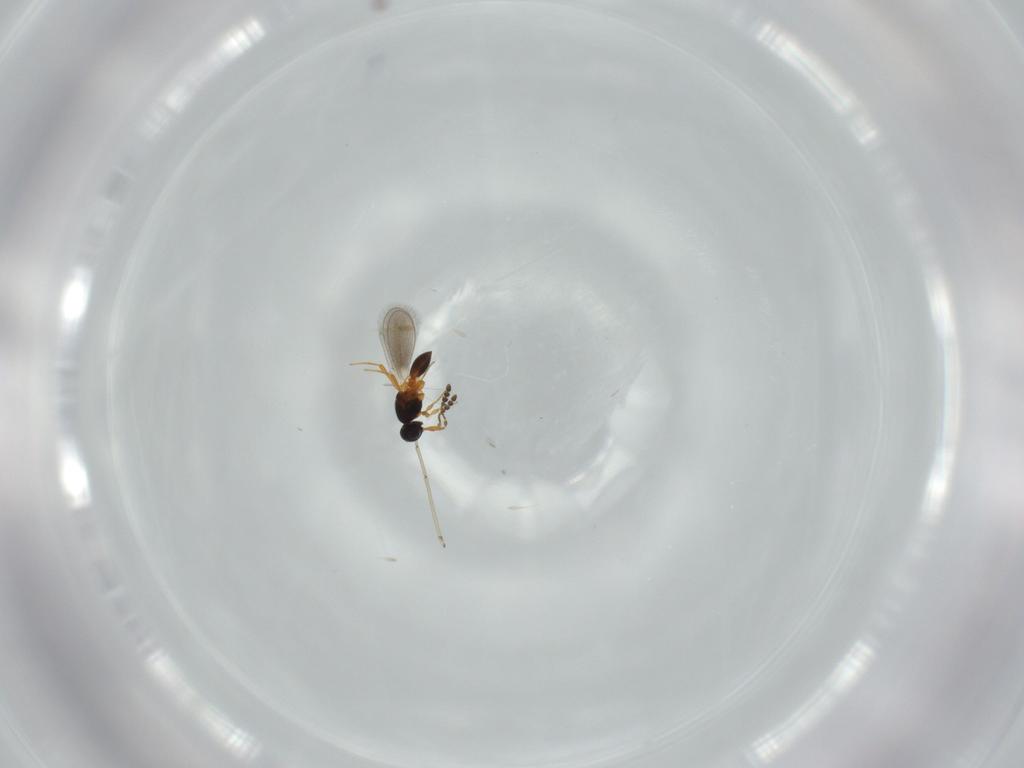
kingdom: Animalia
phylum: Arthropoda
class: Insecta
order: Hymenoptera
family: Platygastridae
